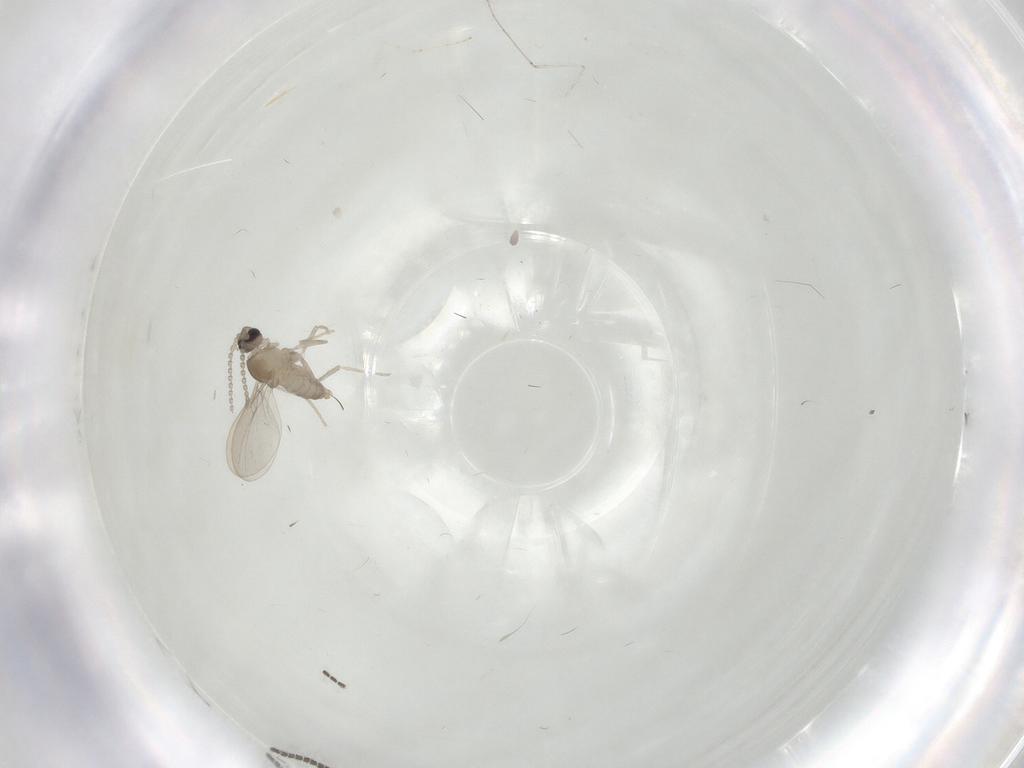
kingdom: Animalia
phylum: Arthropoda
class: Insecta
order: Diptera
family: Cecidomyiidae
